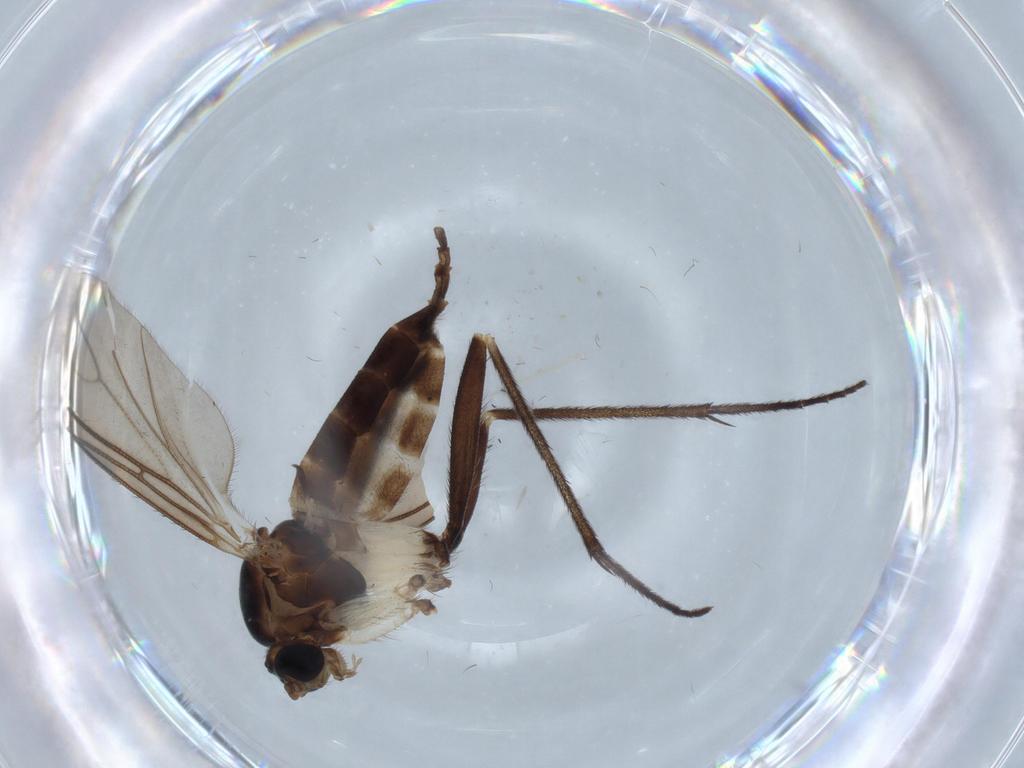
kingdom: Animalia
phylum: Arthropoda
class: Insecta
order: Diptera
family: Sciaridae
